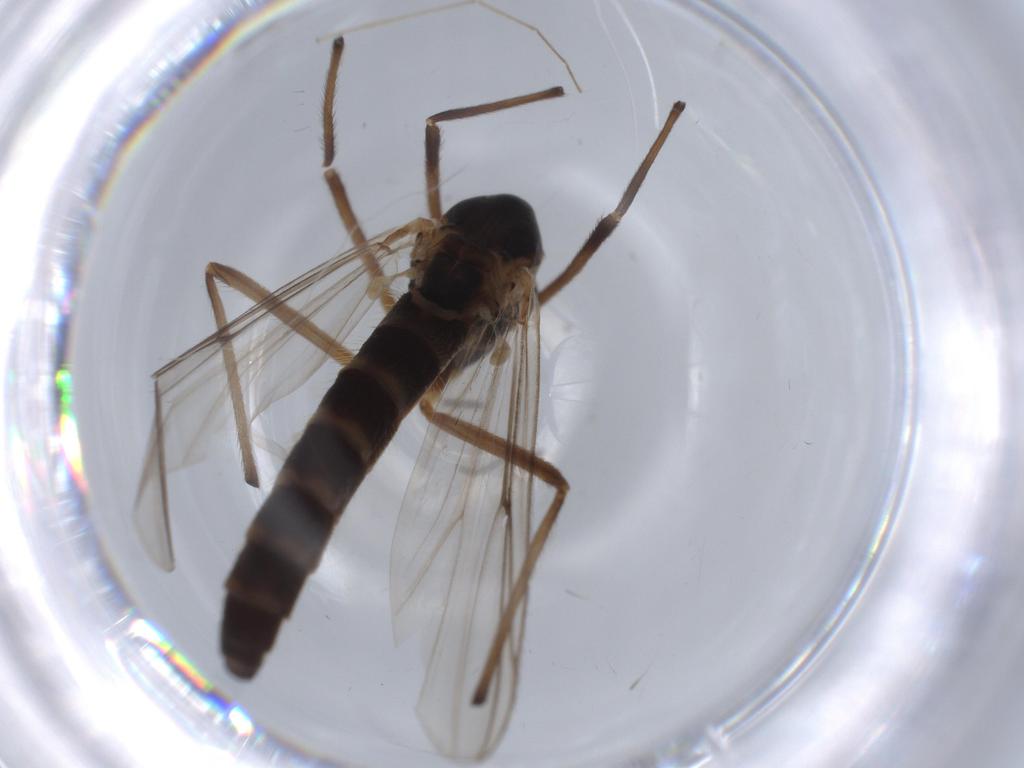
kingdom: Animalia
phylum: Arthropoda
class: Insecta
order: Diptera
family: Chironomidae
